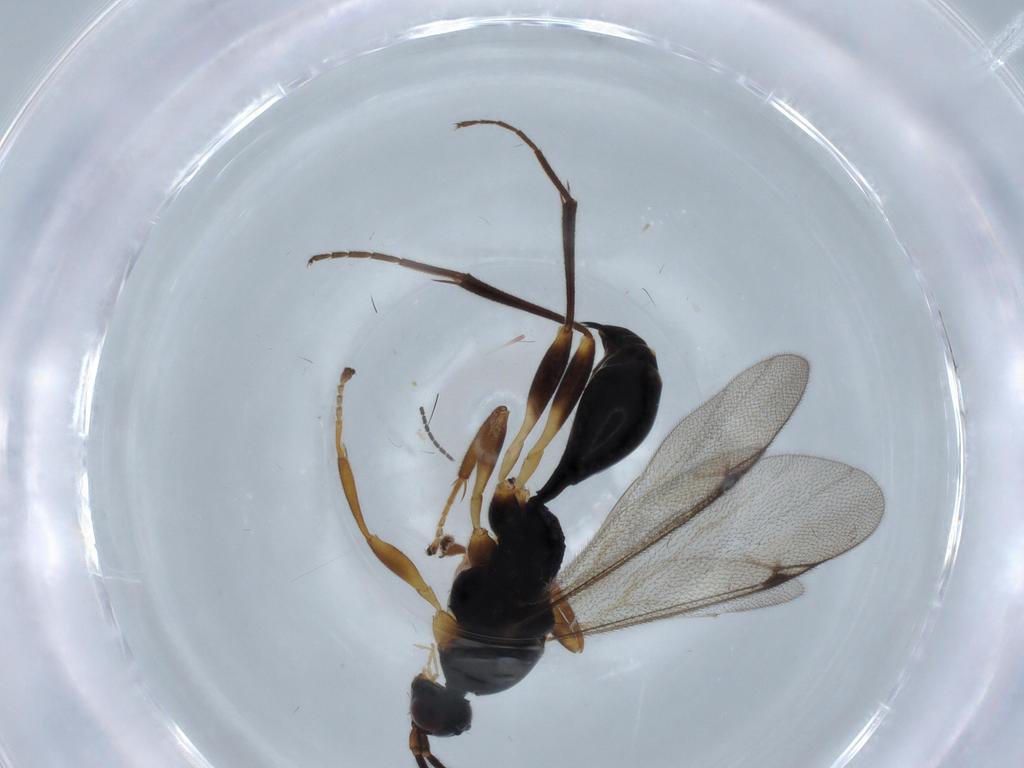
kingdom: Animalia
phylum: Arthropoda
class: Insecta
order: Hymenoptera
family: Dryinidae
